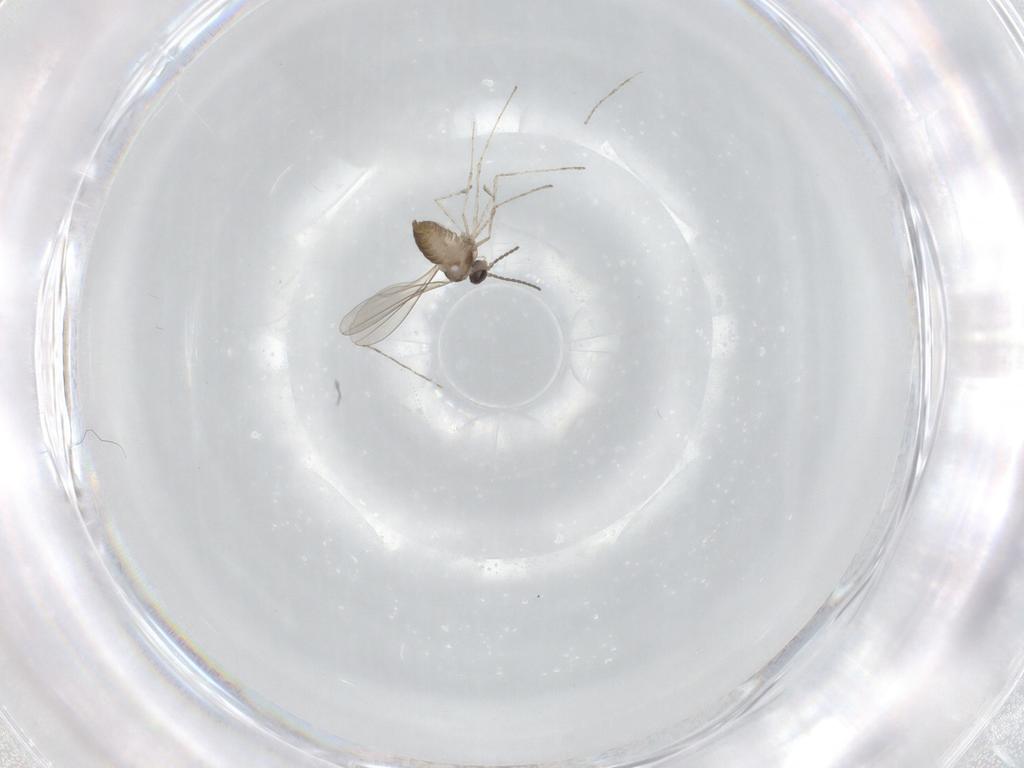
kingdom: Animalia
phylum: Arthropoda
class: Insecta
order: Diptera
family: Cecidomyiidae
